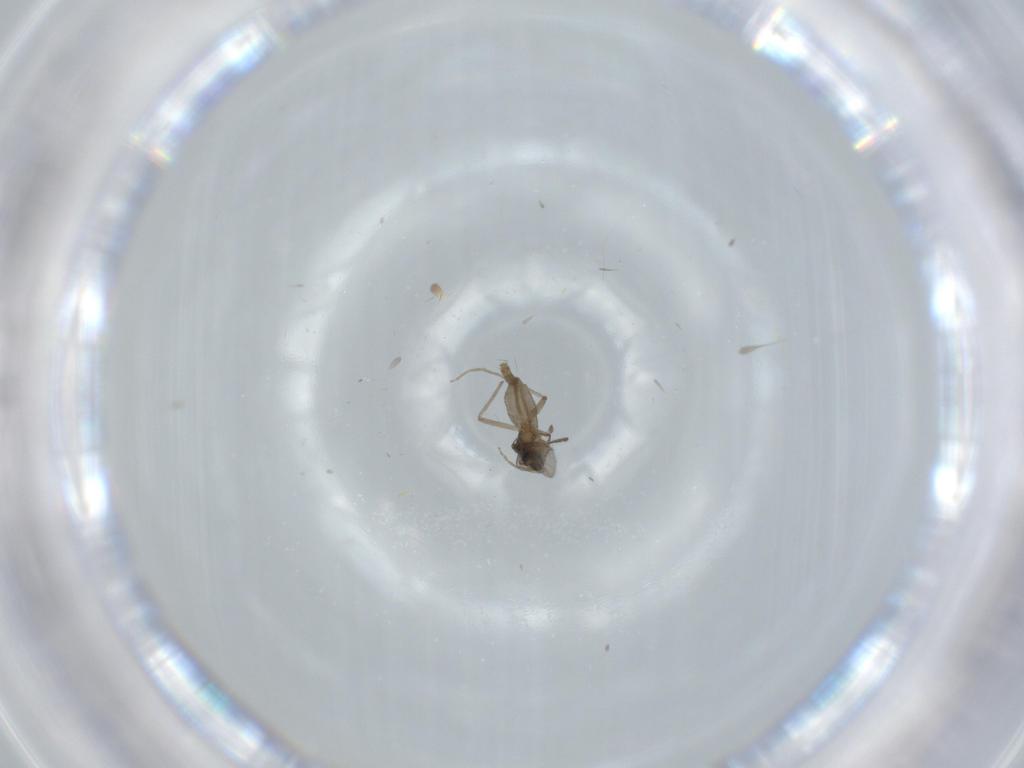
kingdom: Animalia
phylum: Arthropoda
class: Insecta
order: Diptera
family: Chironomidae
